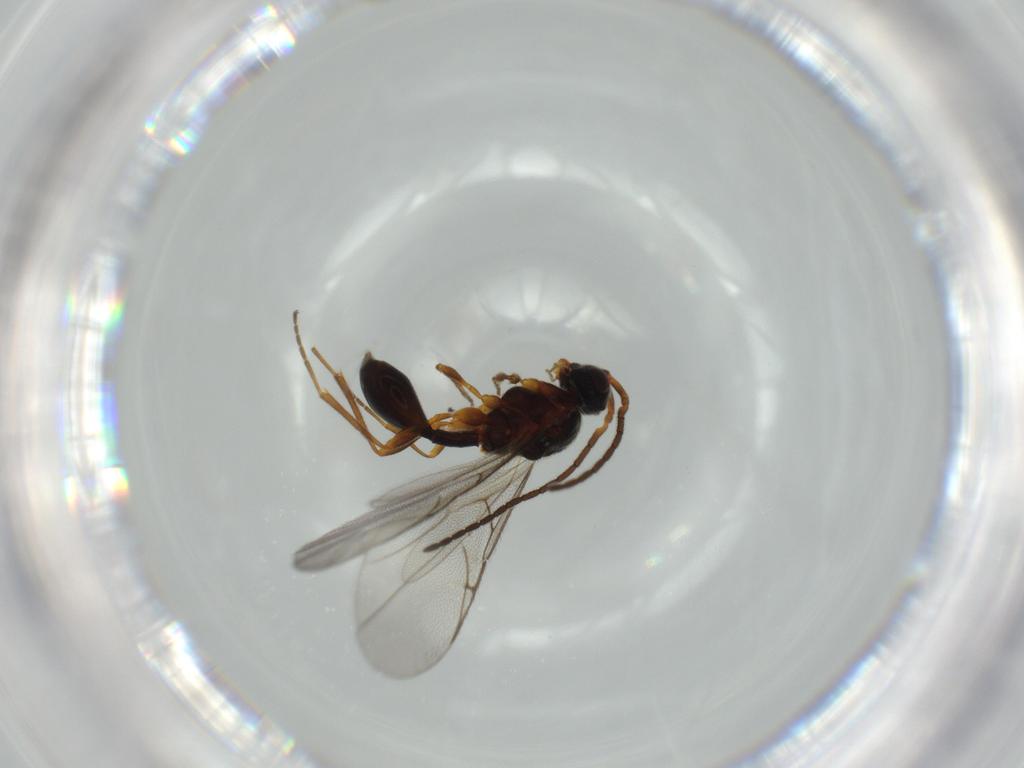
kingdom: Animalia
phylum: Arthropoda
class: Insecta
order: Hymenoptera
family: Diapriidae
